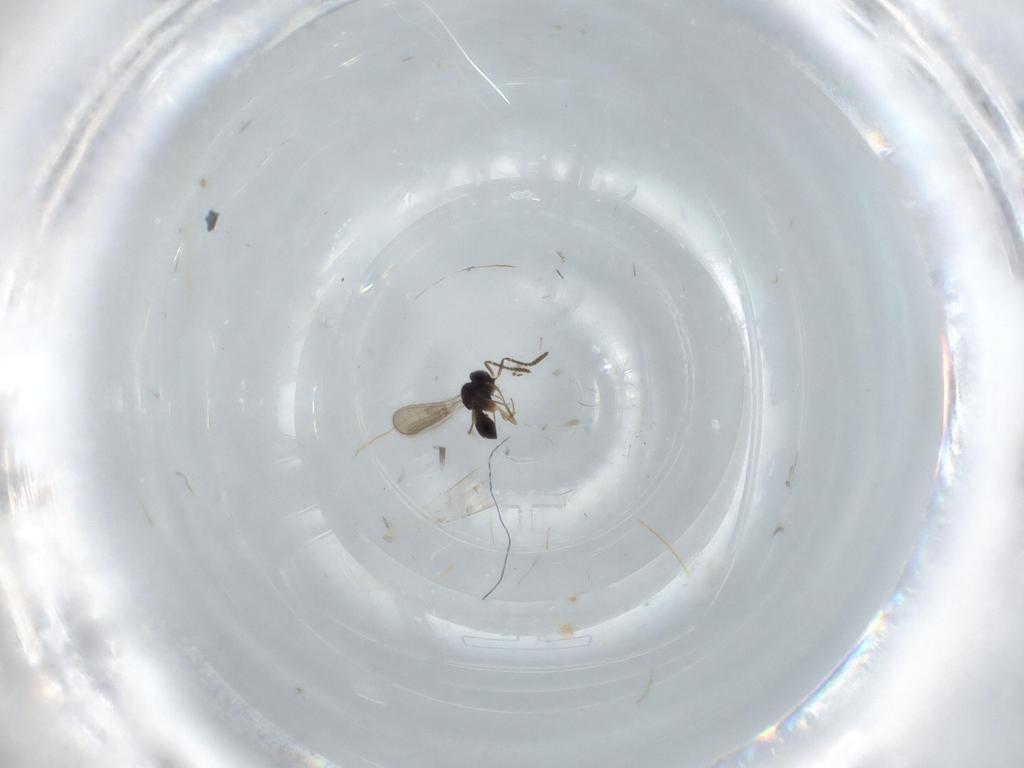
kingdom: Animalia
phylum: Arthropoda
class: Insecta
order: Hymenoptera
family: Scelionidae
